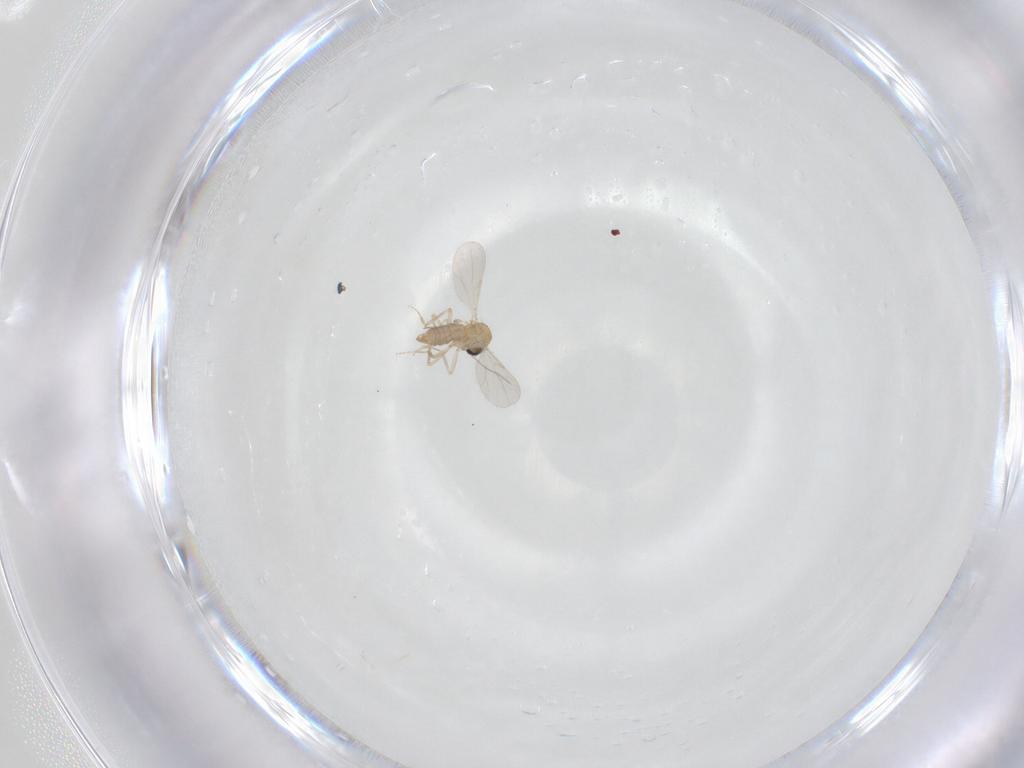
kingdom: Animalia
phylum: Arthropoda
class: Insecta
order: Diptera
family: Ceratopogonidae
